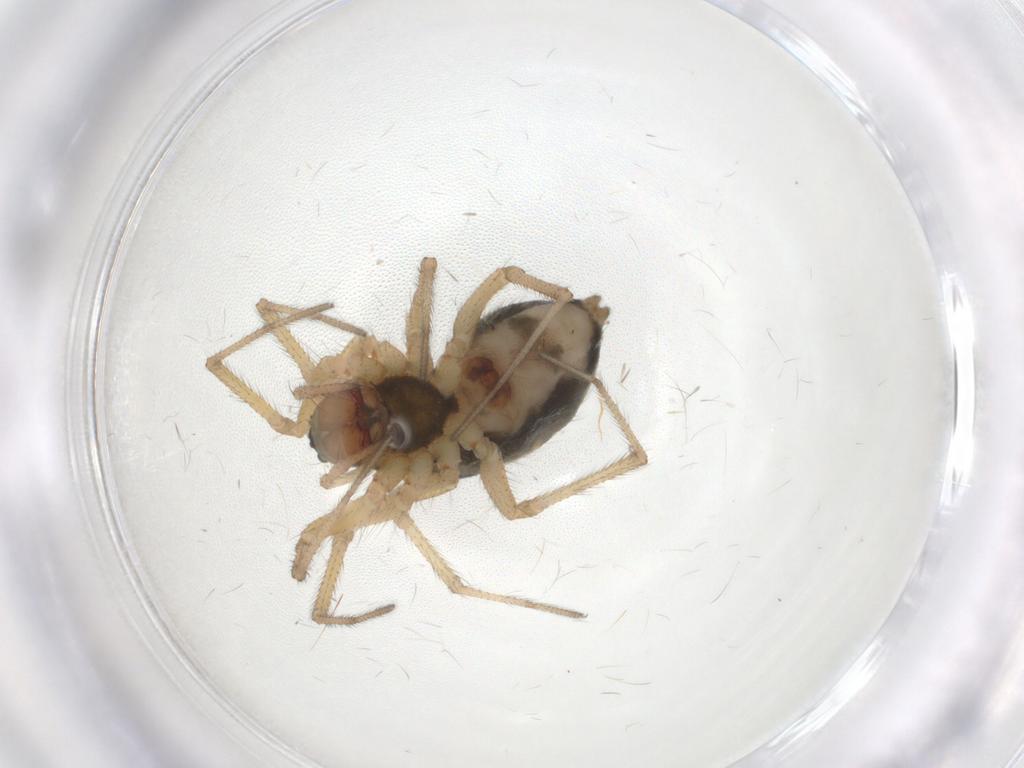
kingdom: Animalia
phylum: Arthropoda
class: Arachnida
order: Araneae
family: Linyphiidae
